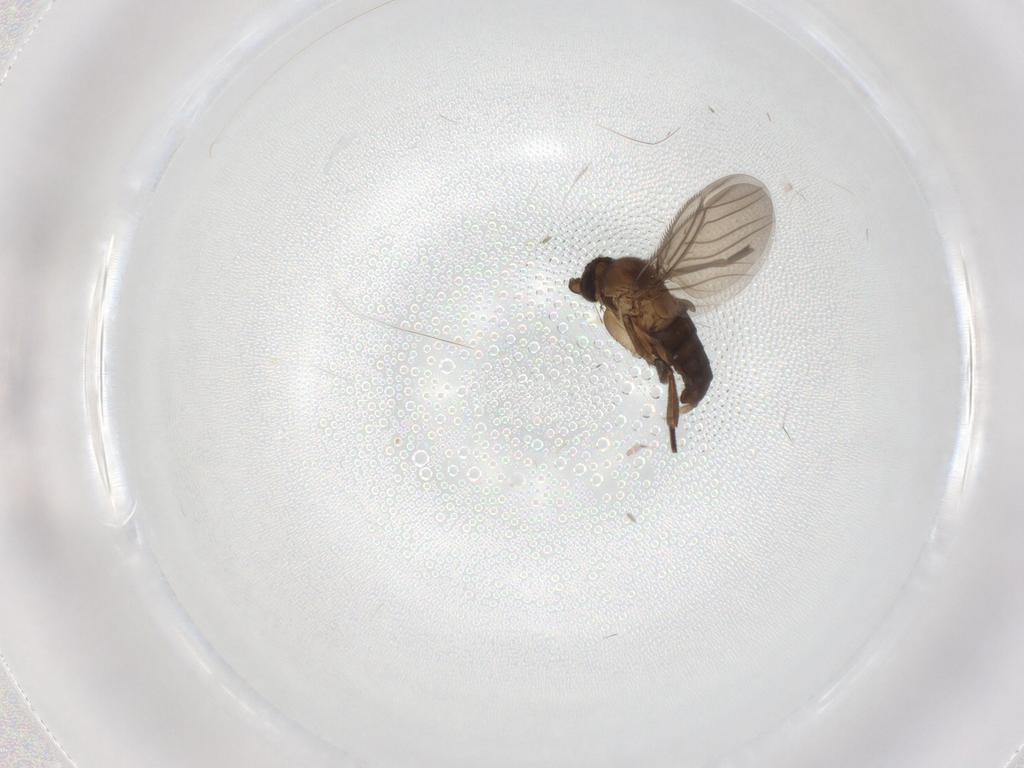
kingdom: Animalia
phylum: Arthropoda
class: Insecta
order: Diptera
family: Phoridae
